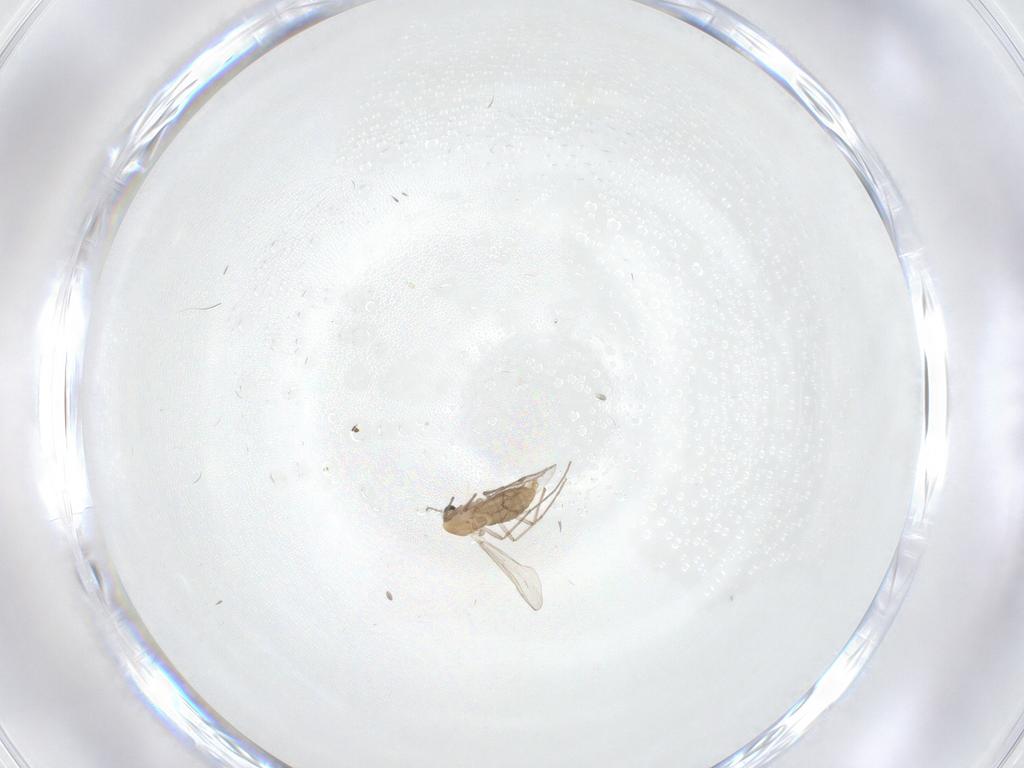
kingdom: Animalia
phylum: Arthropoda
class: Insecta
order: Diptera
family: Chironomidae
